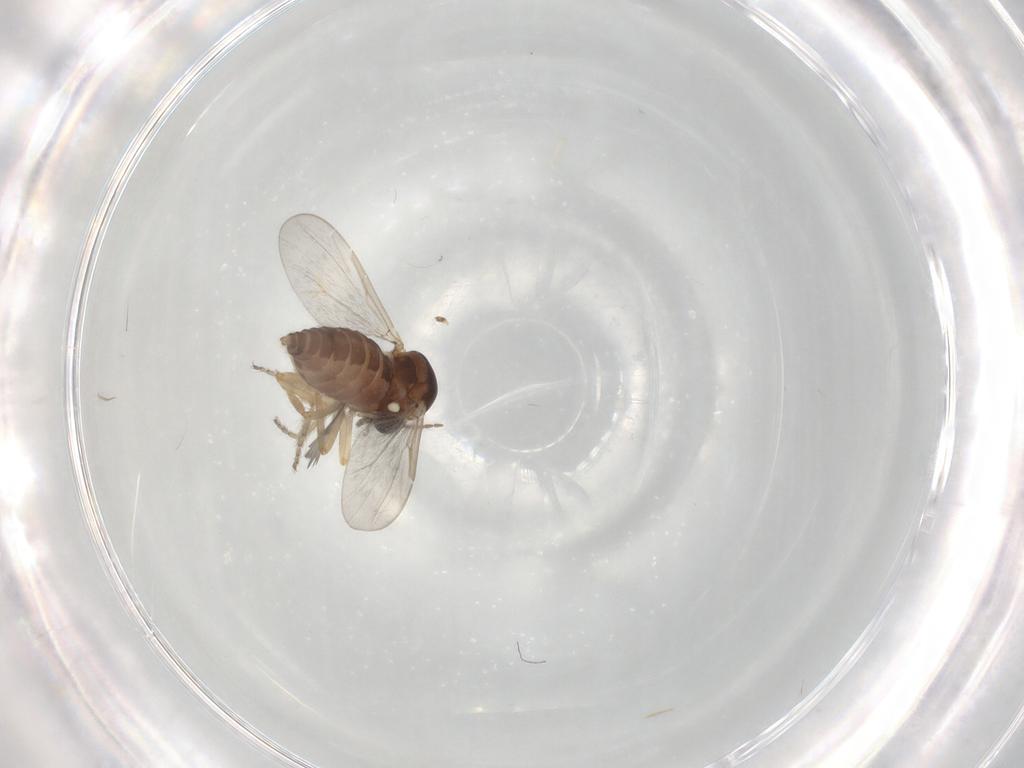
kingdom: Animalia
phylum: Arthropoda
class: Insecta
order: Diptera
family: Ceratopogonidae
